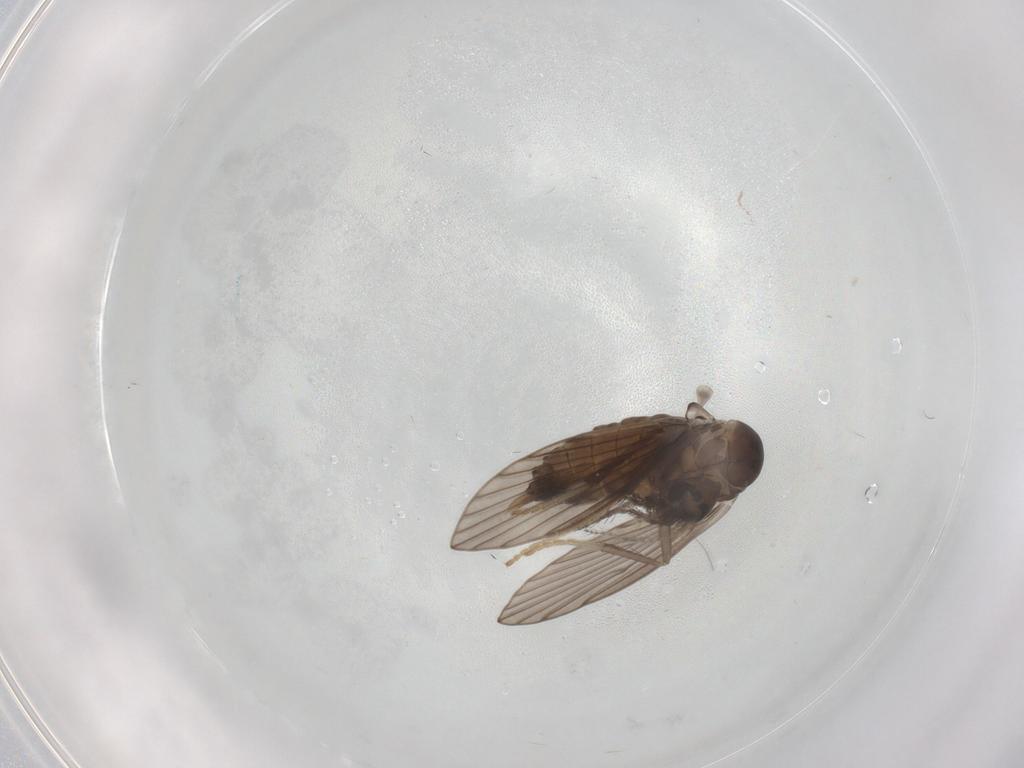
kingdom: Animalia
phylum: Arthropoda
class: Insecta
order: Diptera
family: Psychodidae
